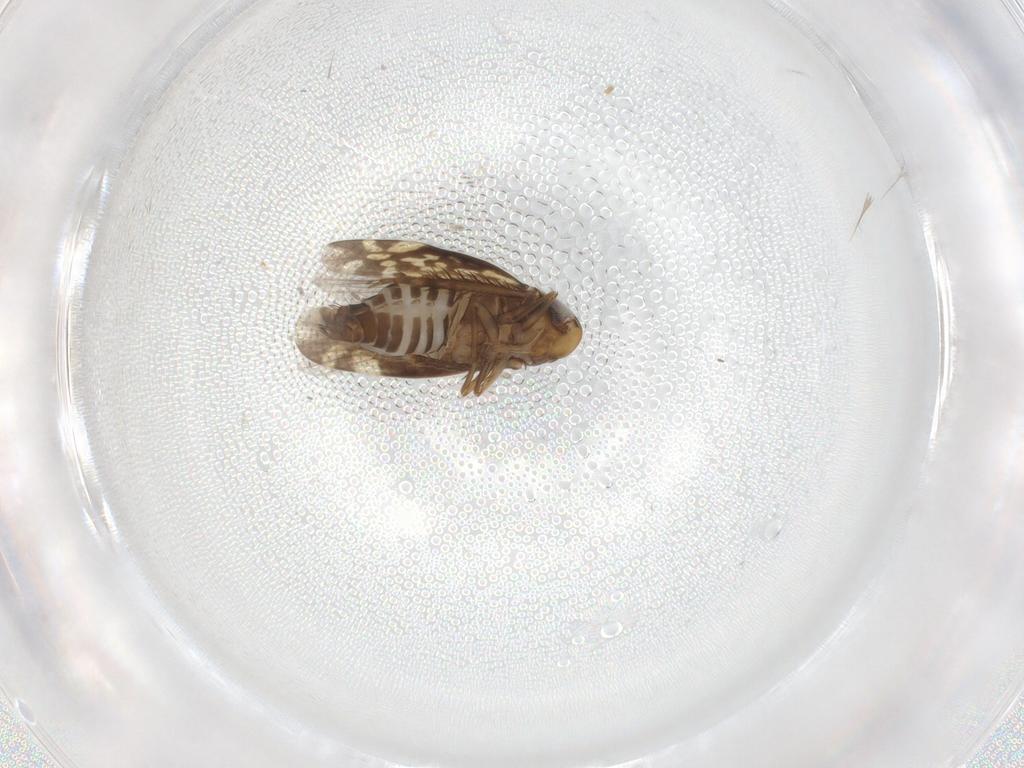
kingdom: Animalia
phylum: Arthropoda
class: Insecta
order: Hemiptera
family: Cicadellidae
